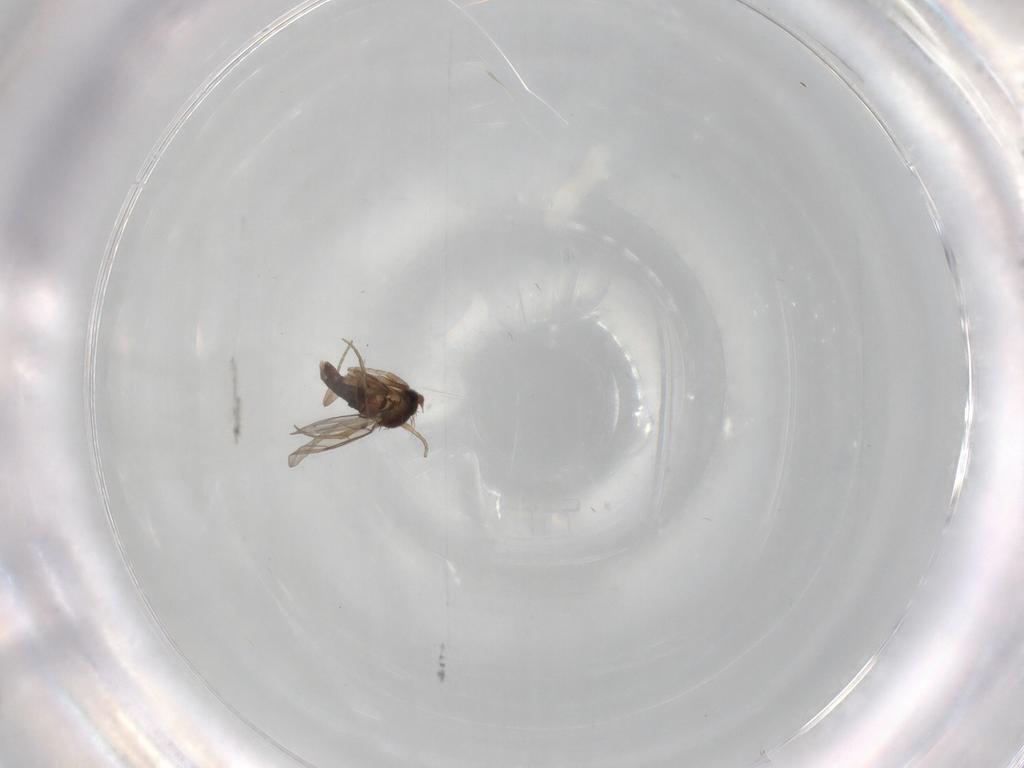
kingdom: Animalia
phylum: Arthropoda
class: Insecta
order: Diptera
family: Phoridae
